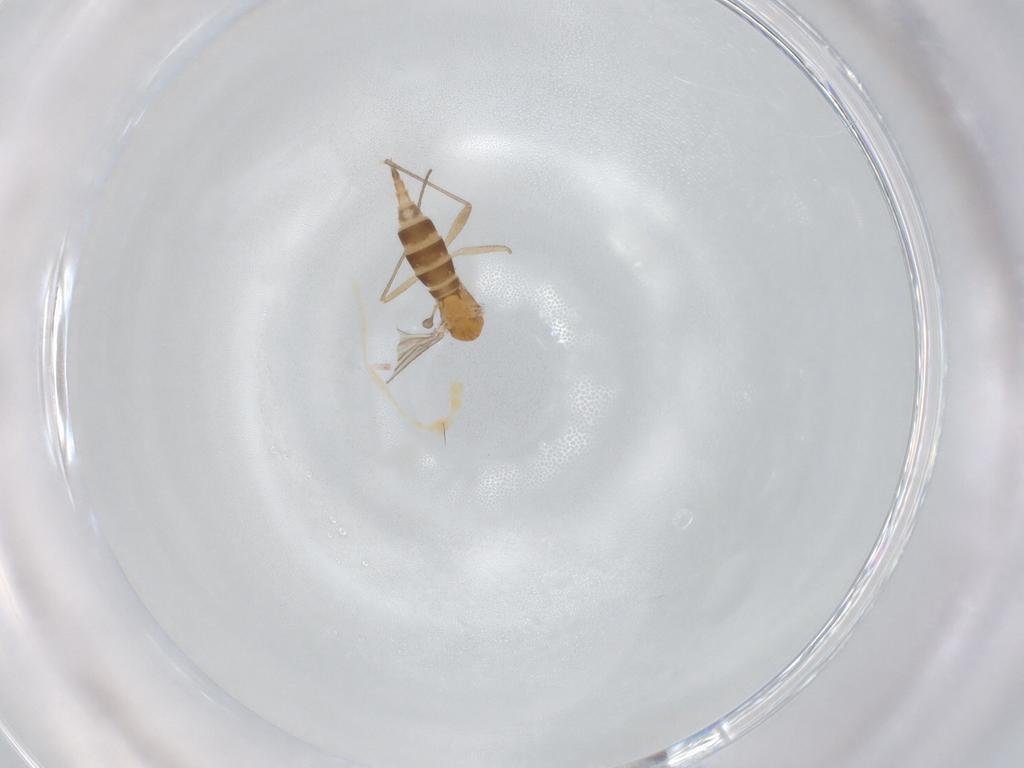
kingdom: Animalia
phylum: Arthropoda
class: Insecta
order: Diptera
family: Sciaridae
